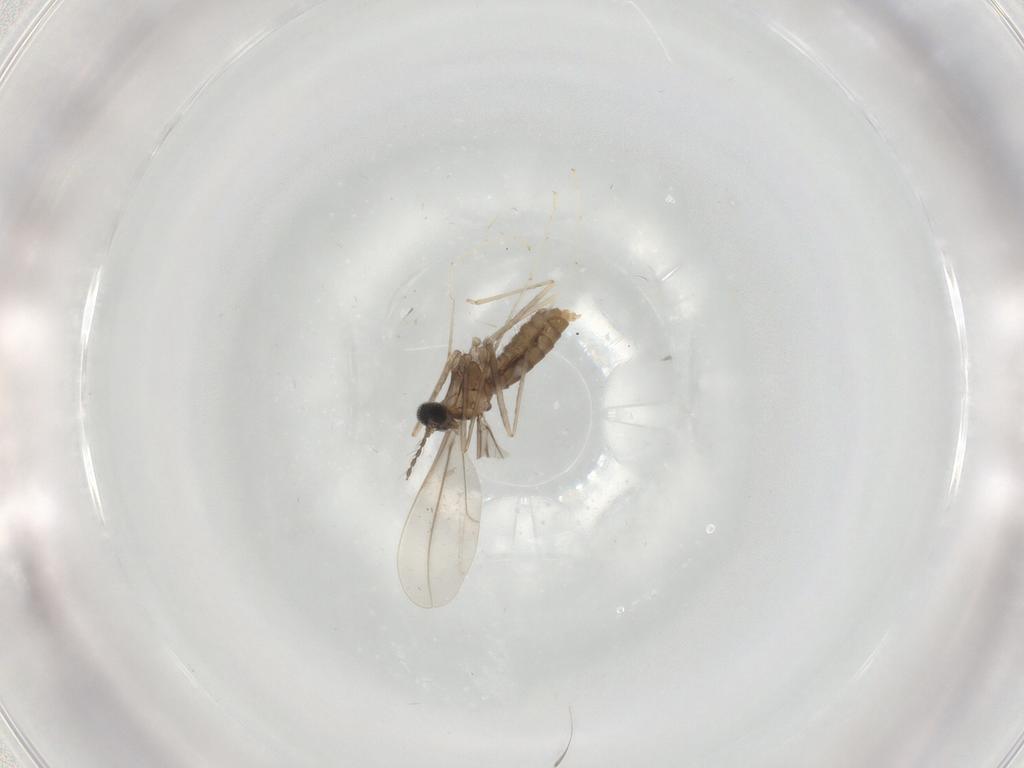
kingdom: Animalia
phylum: Arthropoda
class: Insecta
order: Diptera
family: Cecidomyiidae
